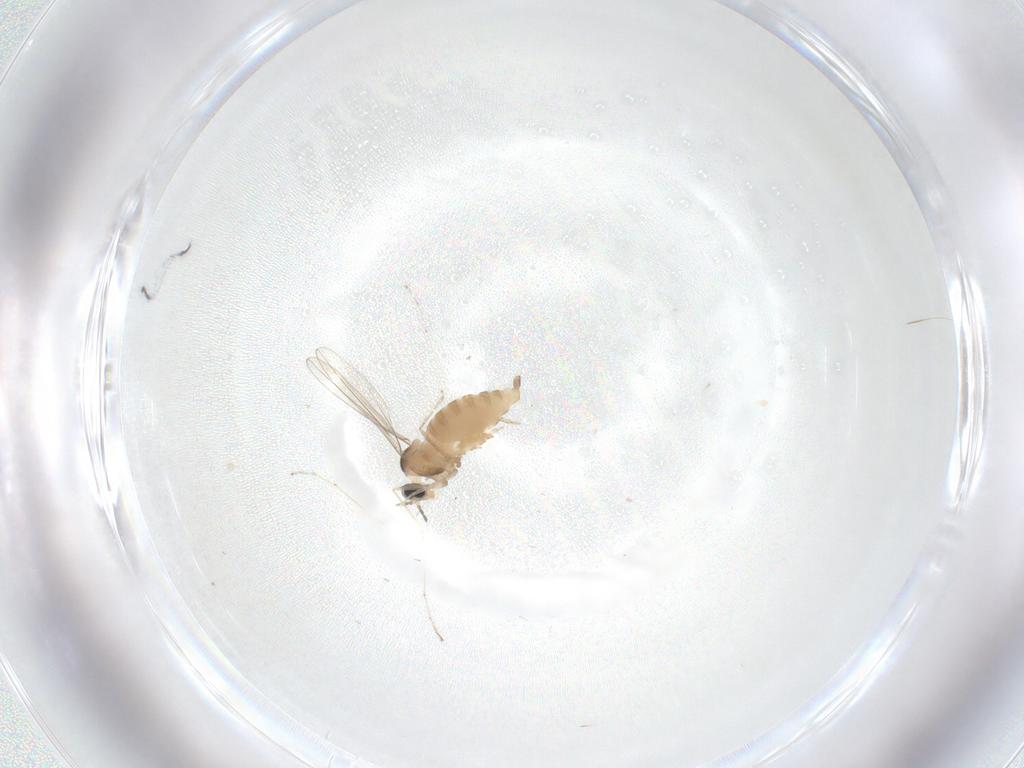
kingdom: Animalia
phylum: Arthropoda
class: Insecta
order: Diptera
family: Cecidomyiidae
